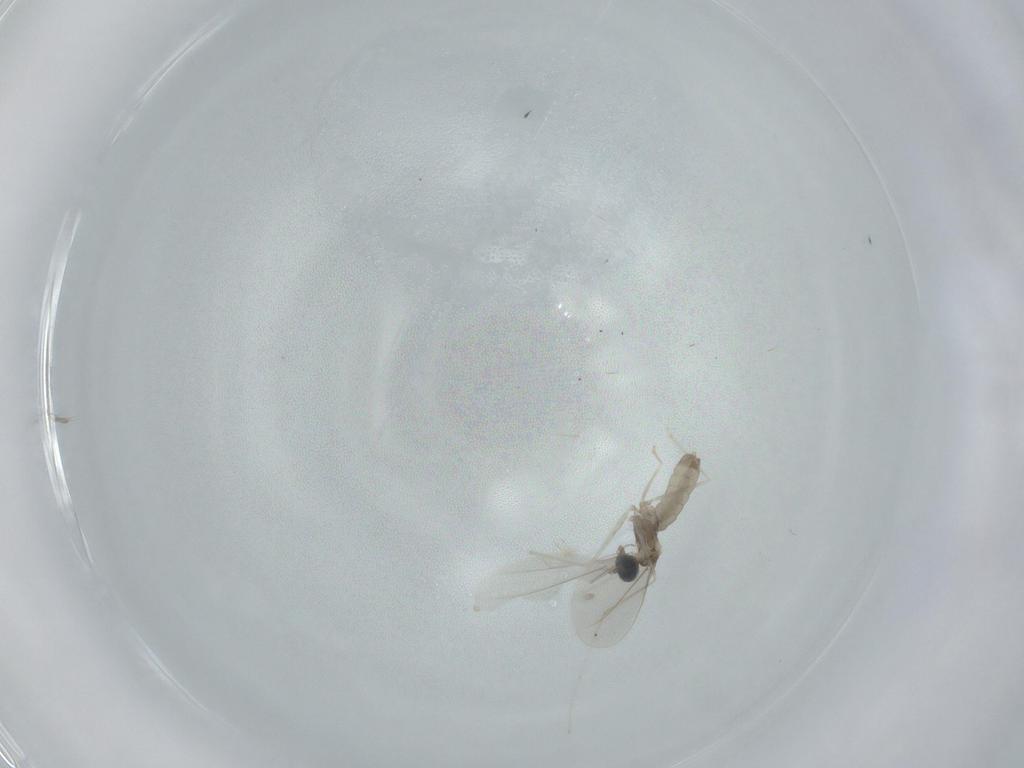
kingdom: Animalia
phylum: Arthropoda
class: Insecta
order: Diptera
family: Cecidomyiidae
